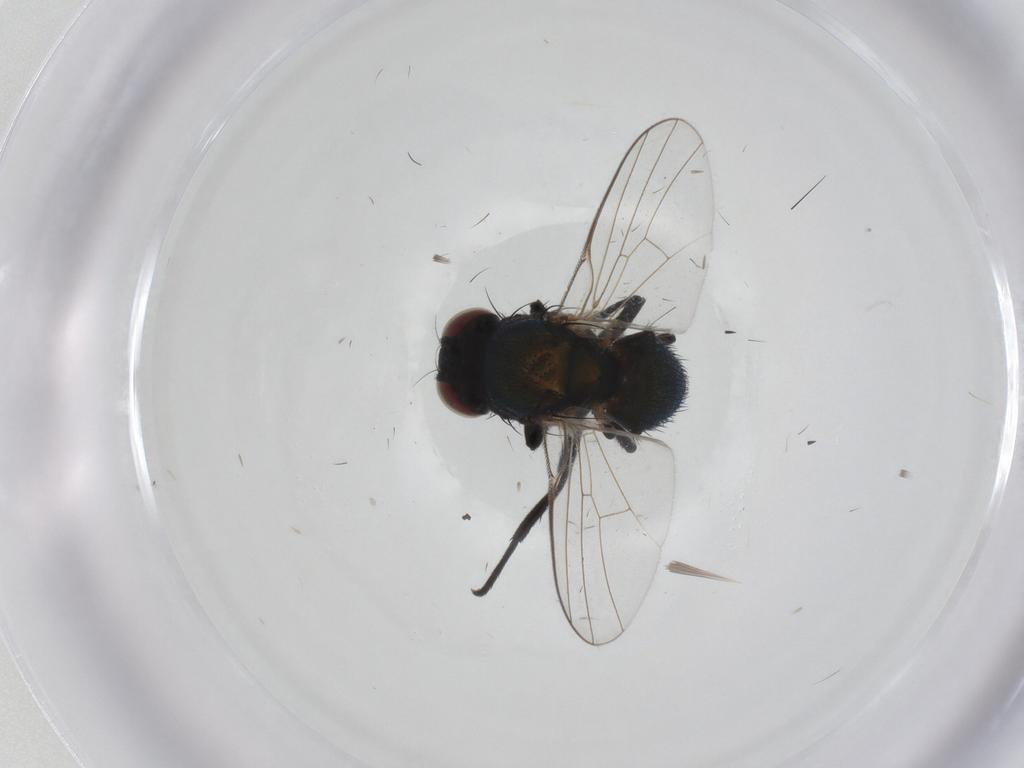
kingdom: Animalia
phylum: Arthropoda
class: Insecta
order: Diptera
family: Agromyzidae
